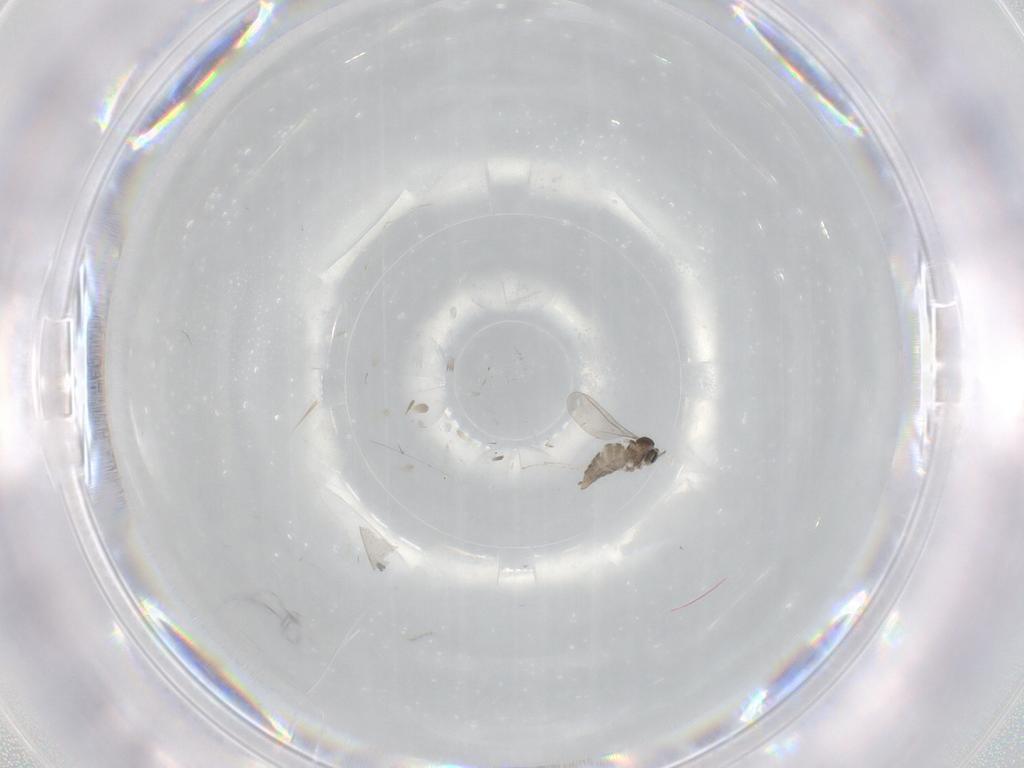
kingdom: Animalia
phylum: Arthropoda
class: Insecta
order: Diptera
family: Cecidomyiidae
